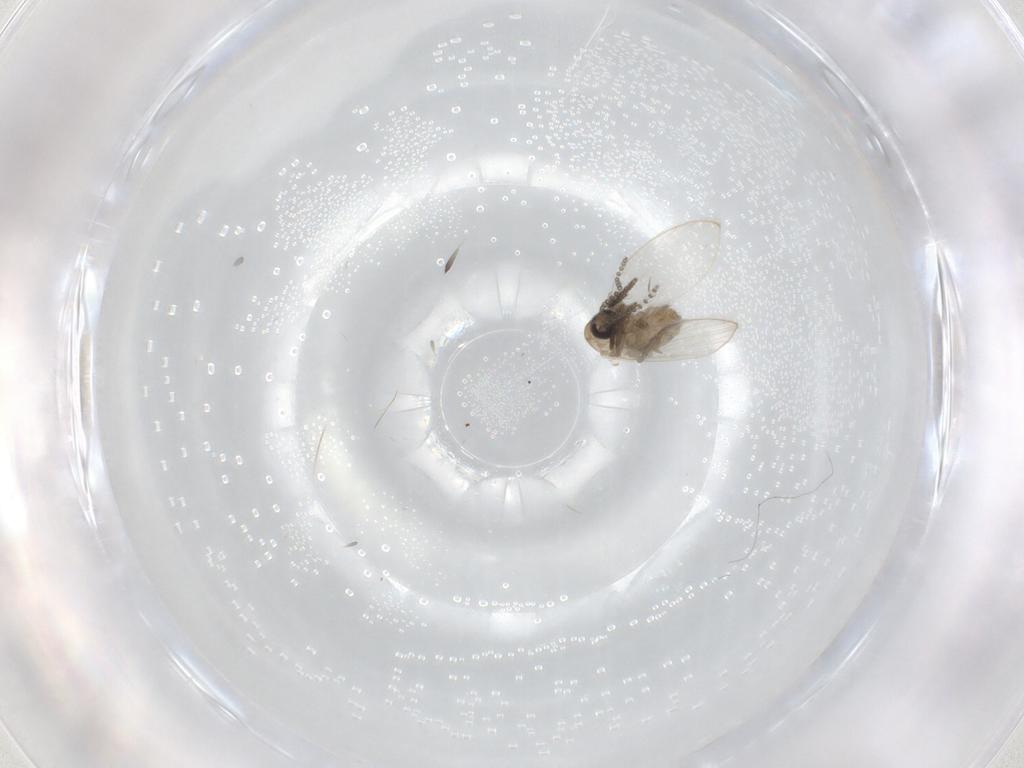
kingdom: Animalia
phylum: Arthropoda
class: Insecta
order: Diptera
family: Psychodidae
